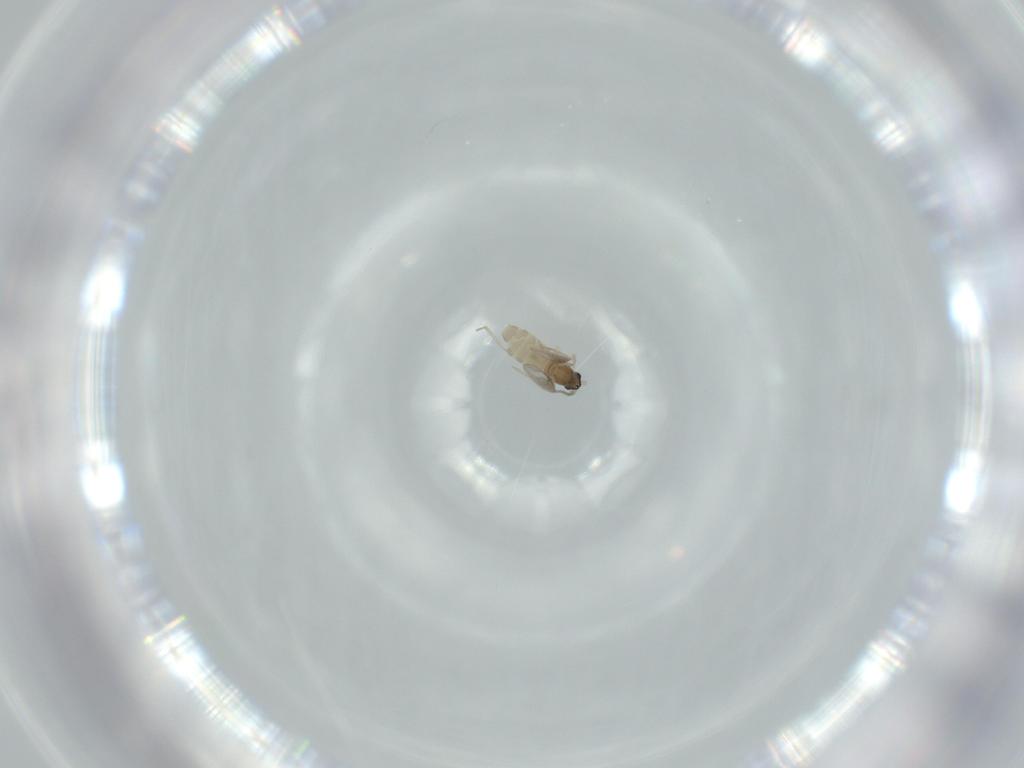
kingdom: Animalia
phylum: Arthropoda
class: Insecta
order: Diptera
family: Cecidomyiidae
